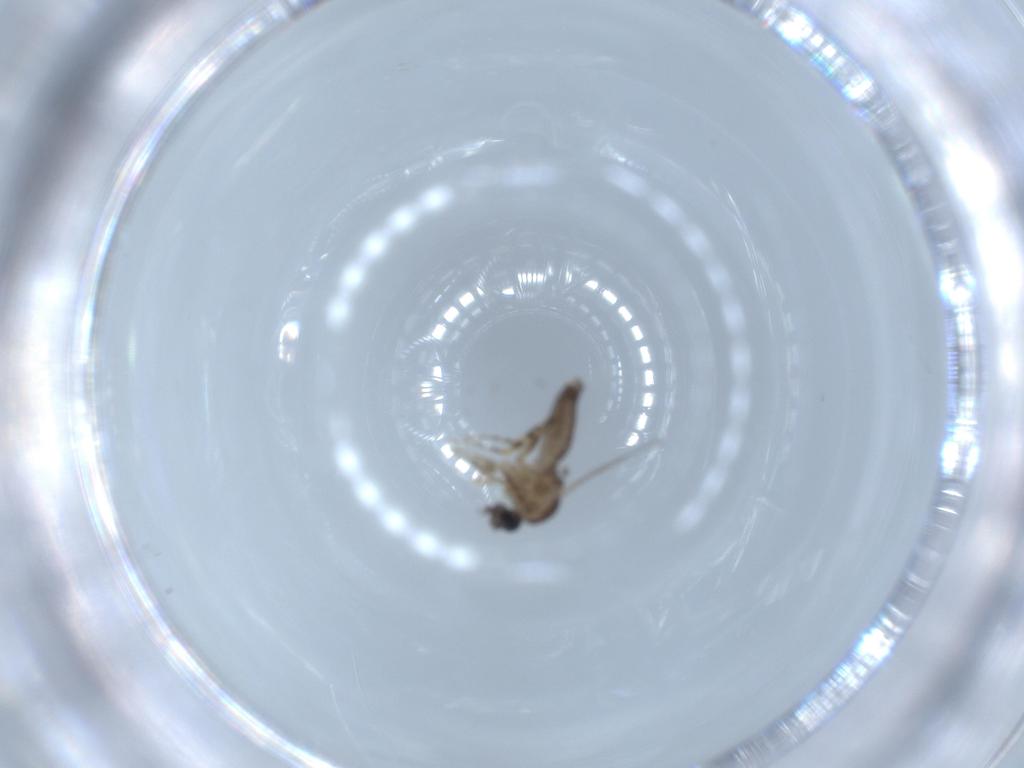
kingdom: Animalia
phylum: Arthropoda
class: Insecta
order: Diptera
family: Ceratopogonidae
